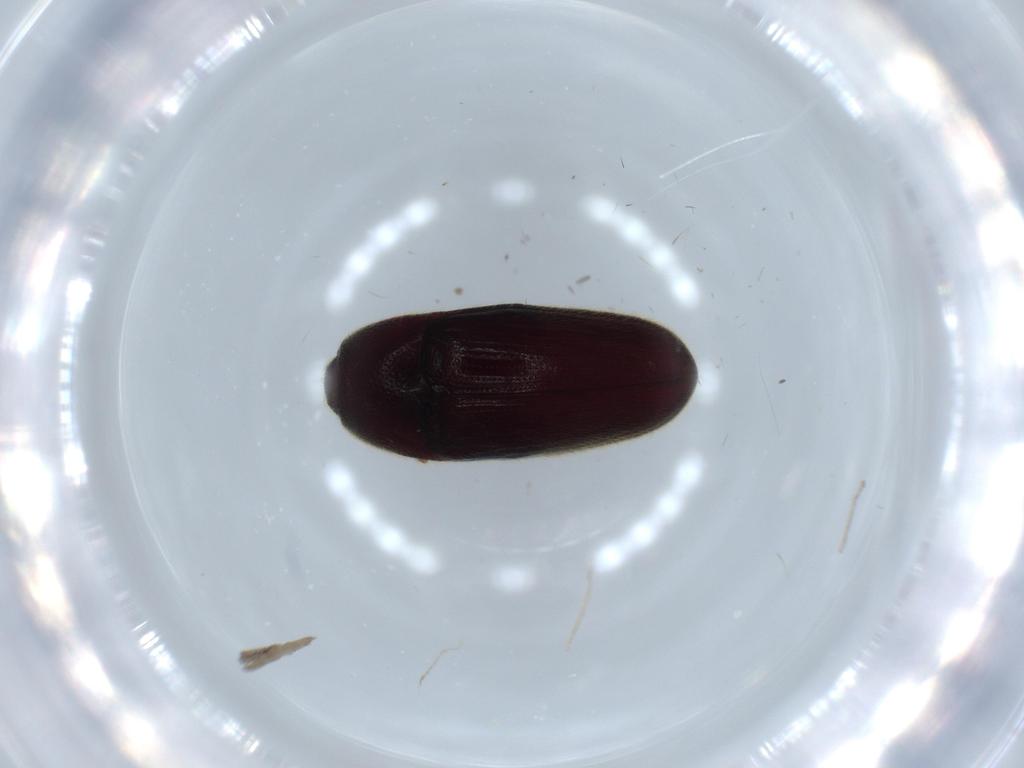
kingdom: Animalia
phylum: Arthropoda
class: Insecta
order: Coleoptera
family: Throscidae
